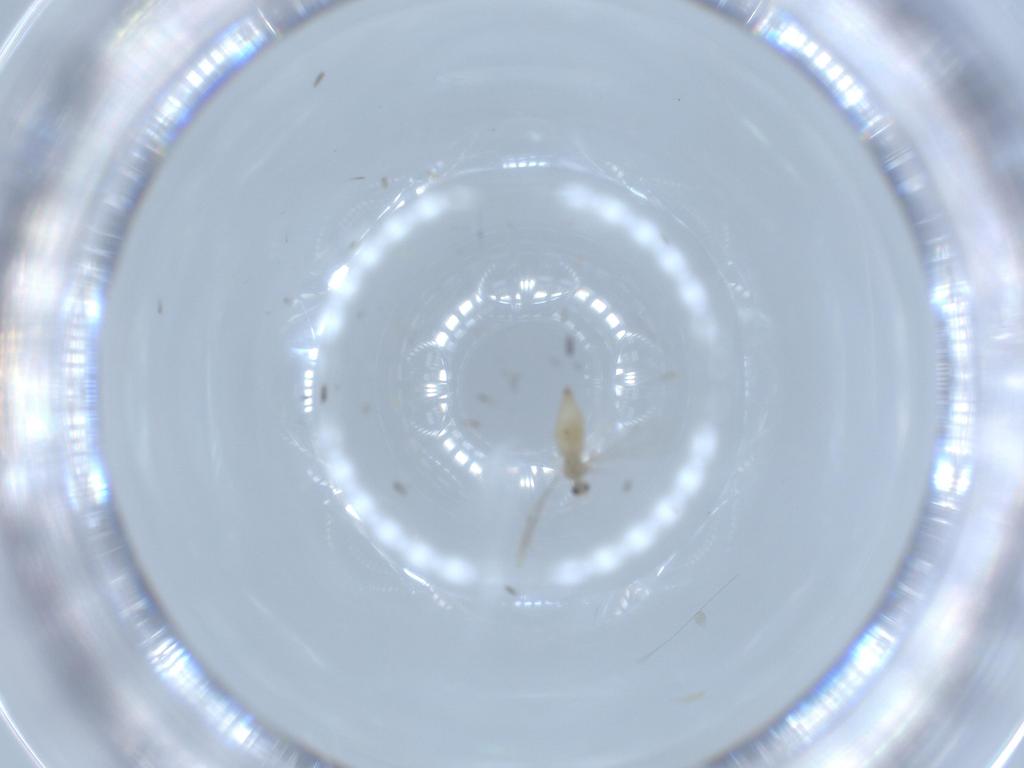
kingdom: Animalia
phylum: Arthropoda
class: Insecta
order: Diptera
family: Cecidomyiidae
